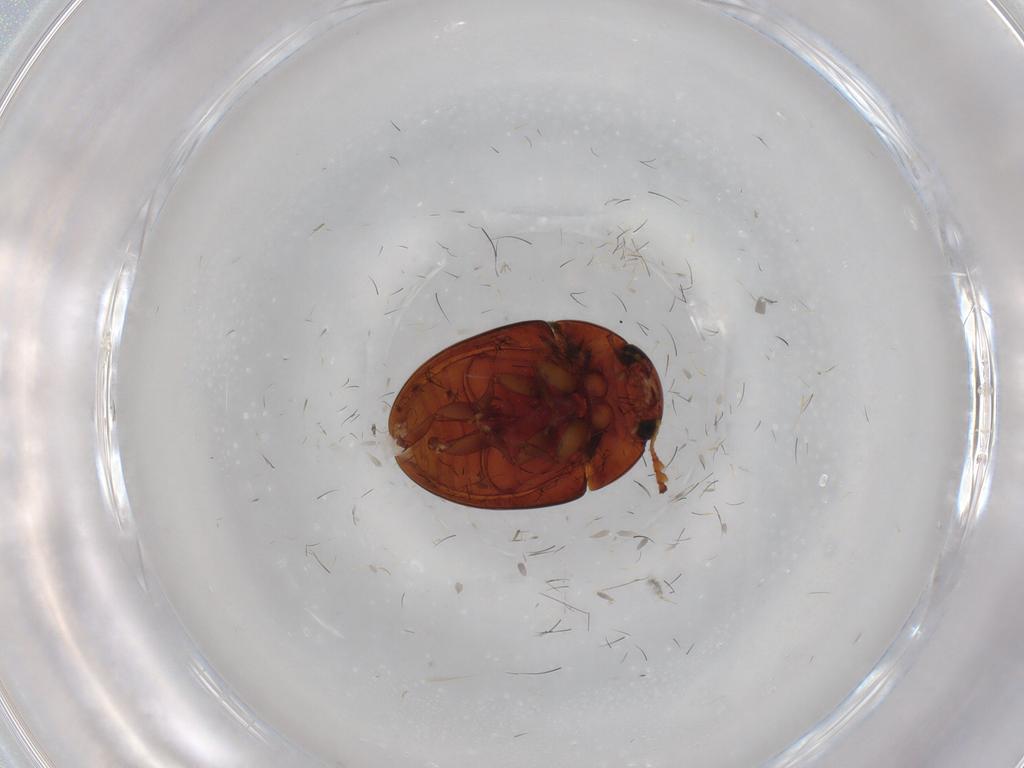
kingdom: Animalia
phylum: Arthropoda
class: Insecta
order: Coleoptera
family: Phalacridae
